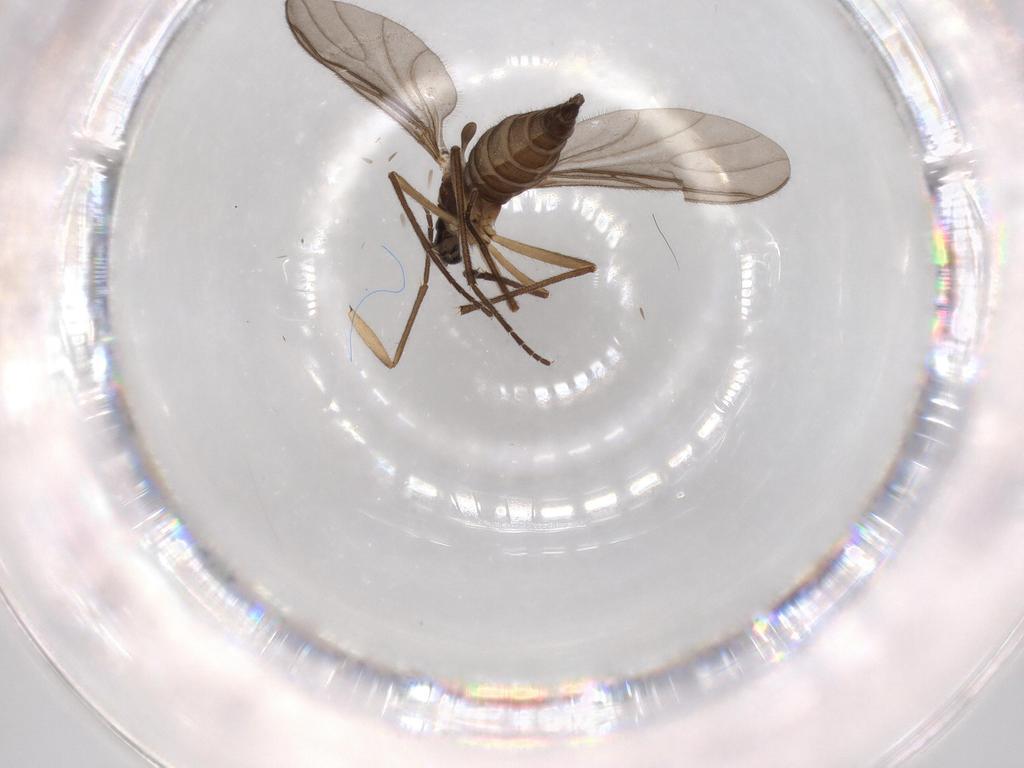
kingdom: Animalia
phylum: Arthropoda
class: Insecta
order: Diptera
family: Sciaridae
